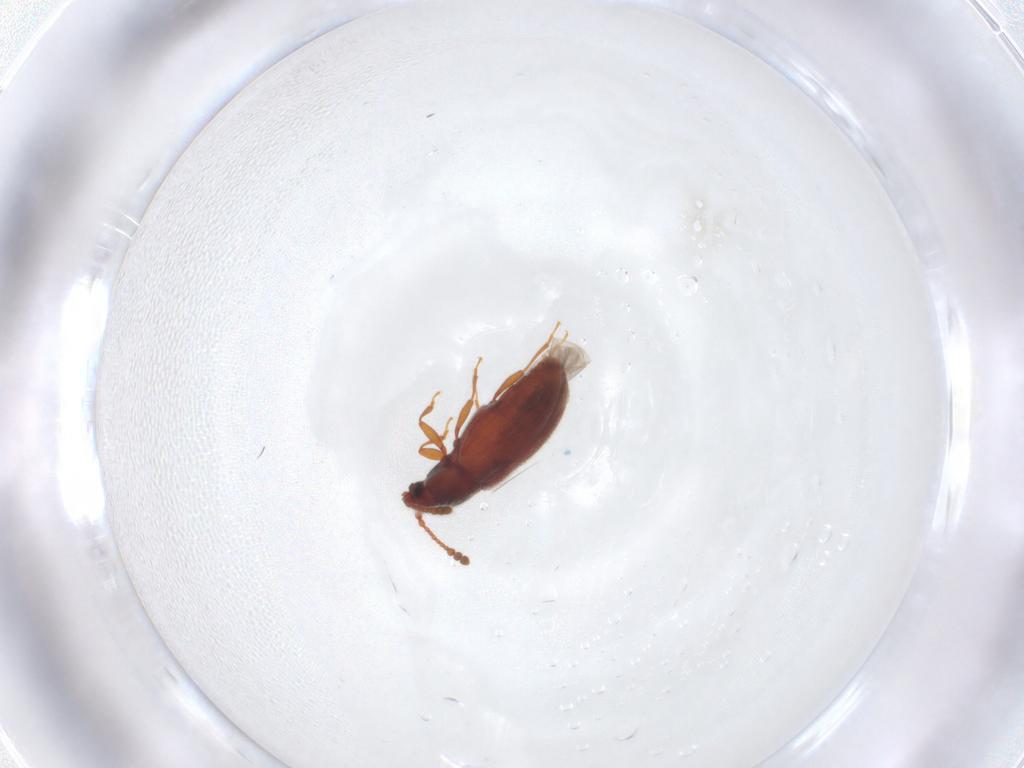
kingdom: Animalia
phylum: Arthropoda
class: Insecta
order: Coleoptera
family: Cryptophagidae
